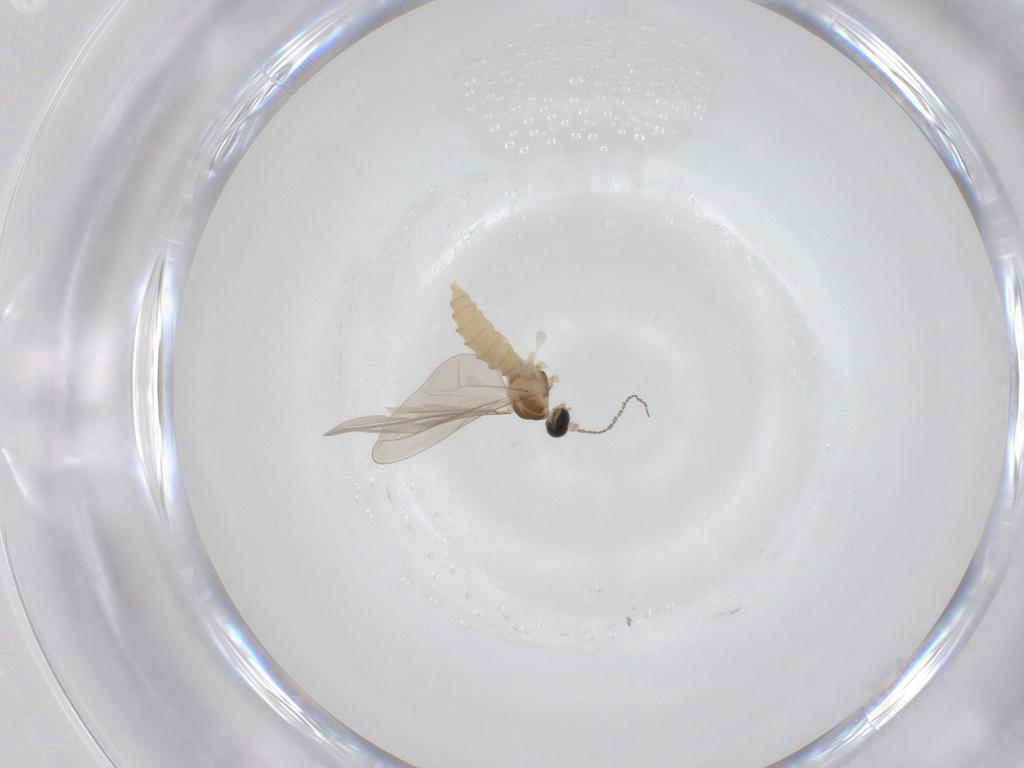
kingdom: Animalia
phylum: Arthropoda
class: Insecta
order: Diptera
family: Cecidomyiidae
